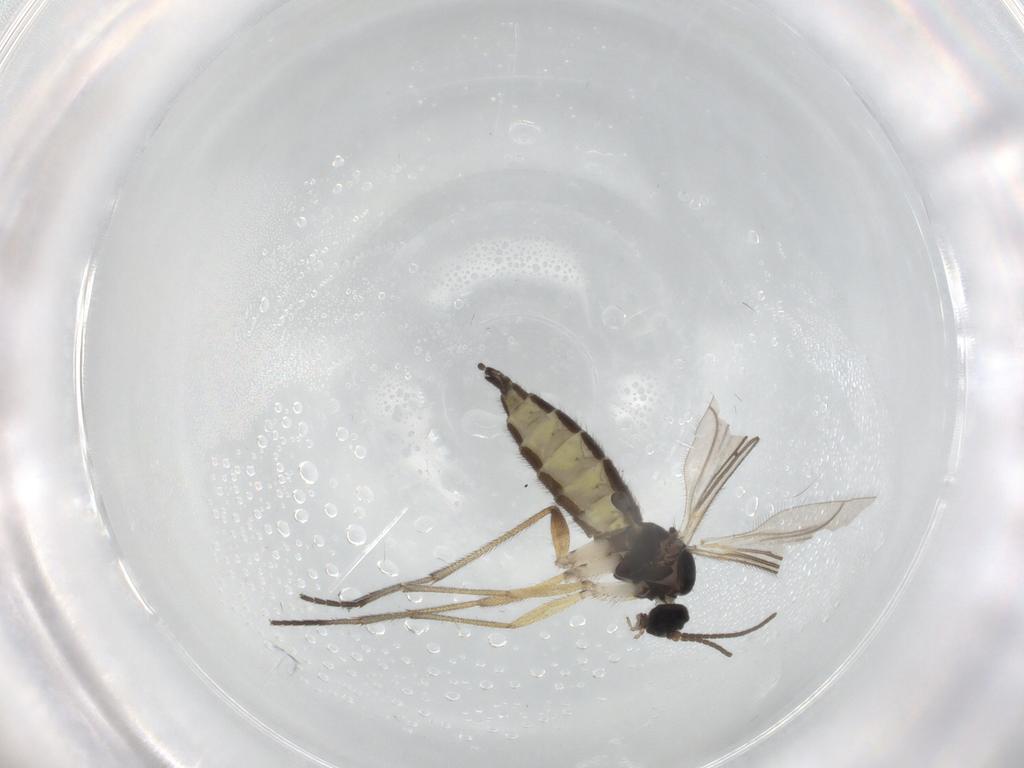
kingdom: Animalia
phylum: Arthropoda
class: Insecta
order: Diptera
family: Sciaridae
